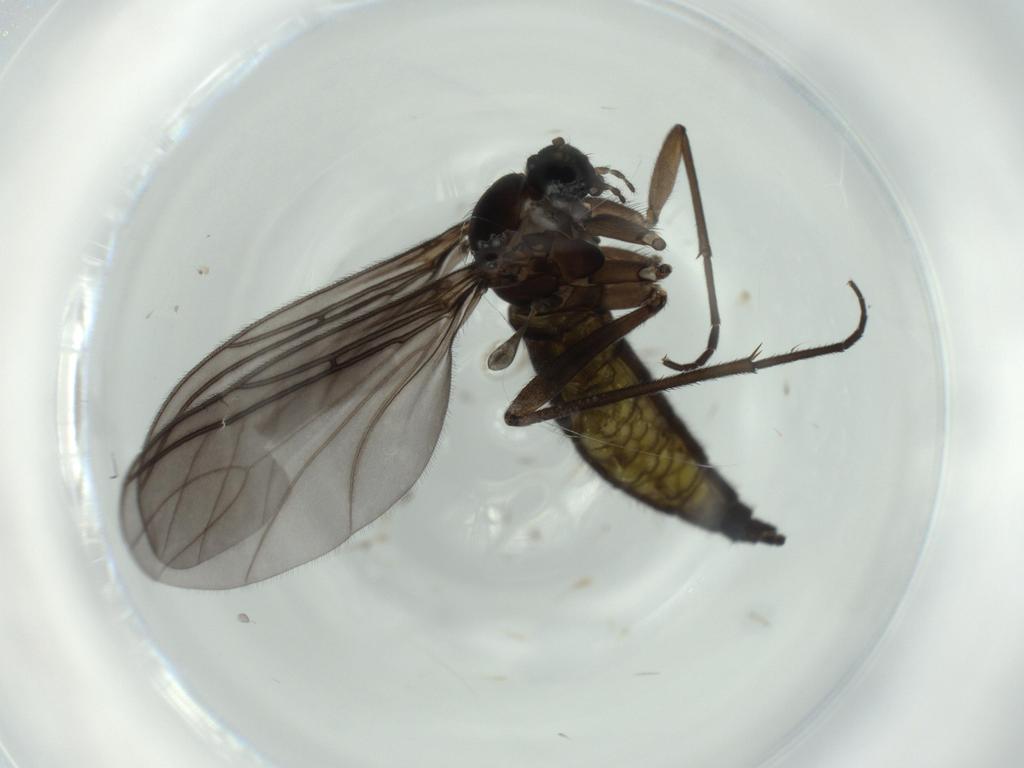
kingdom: Animalia
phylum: Arthropoda
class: Insecta
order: Diptera
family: Sciaridae
